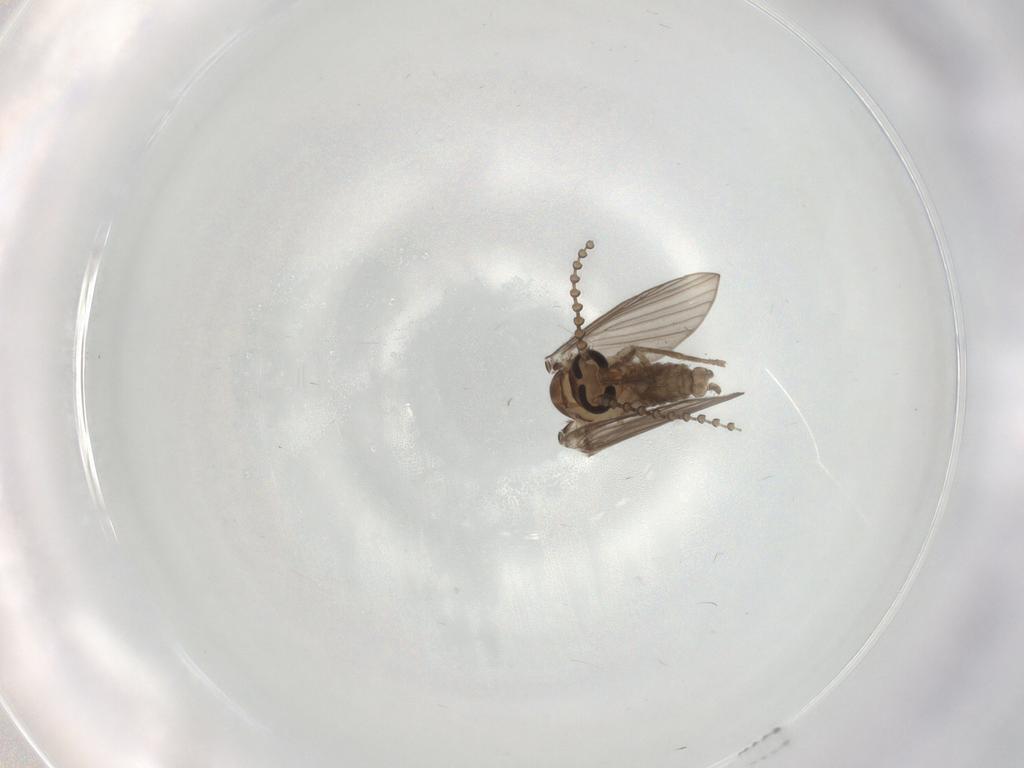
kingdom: Animalia
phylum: Arthropoda
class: Insecta
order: Diptera
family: Psychodidae
